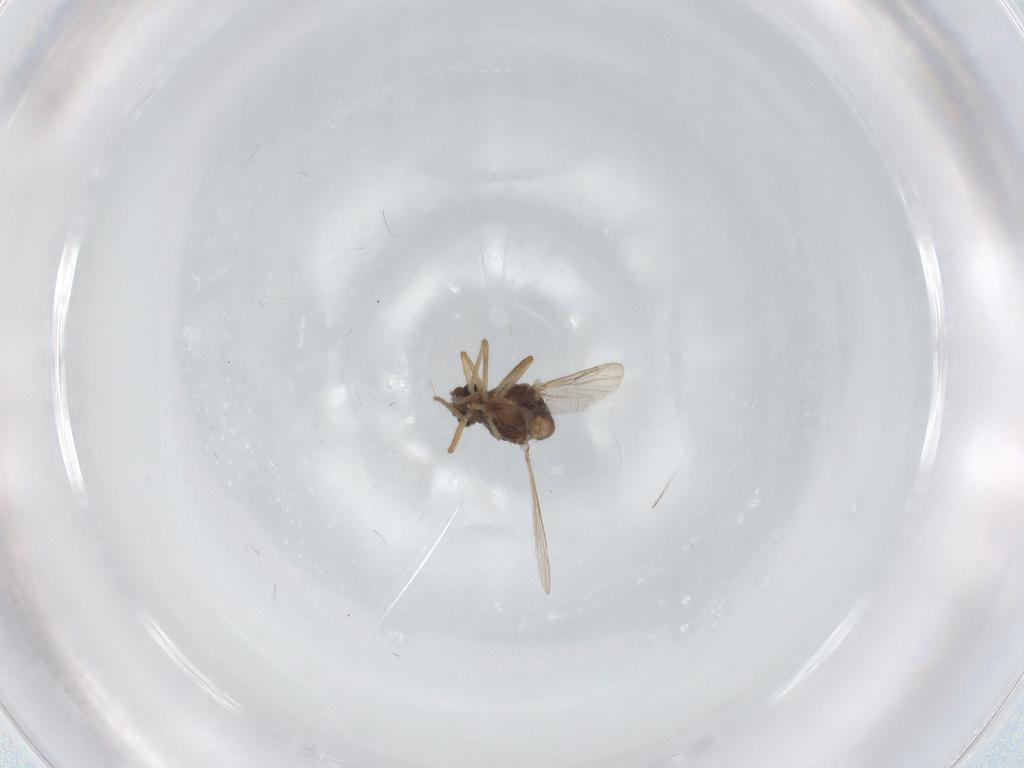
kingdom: Animalia
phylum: Arthropoda
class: Insecta
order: Diptera
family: Ceratopogonidae
